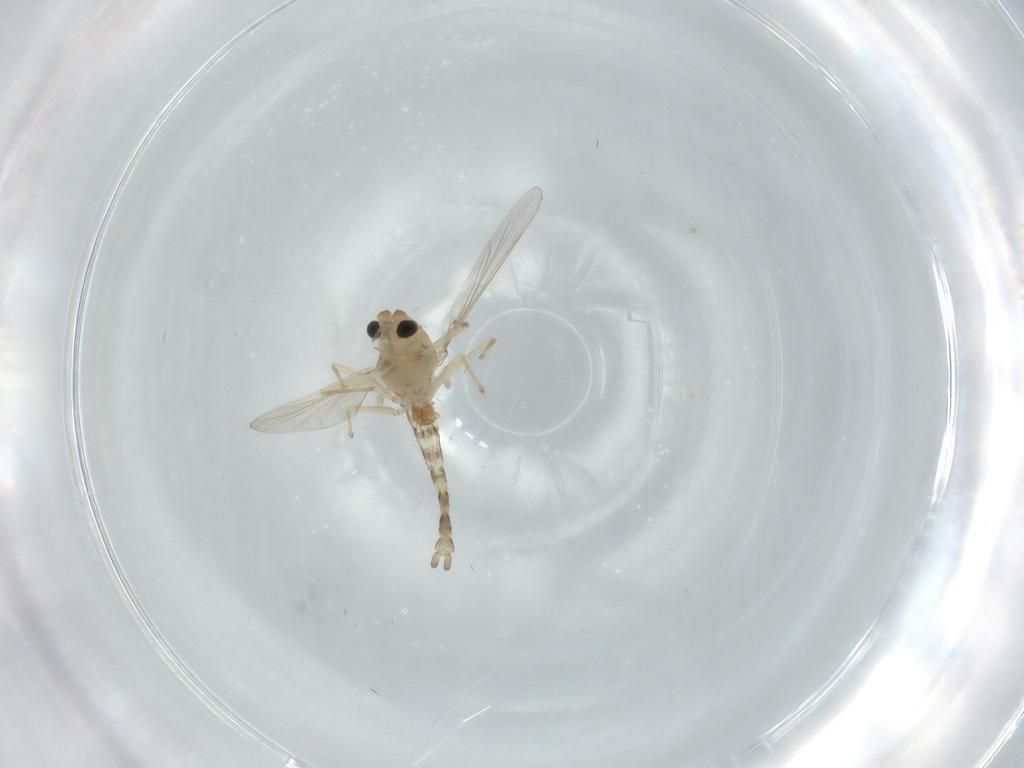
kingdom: Animalia
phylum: Arthropoda
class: Insecta
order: Diptera
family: Chironomidae
